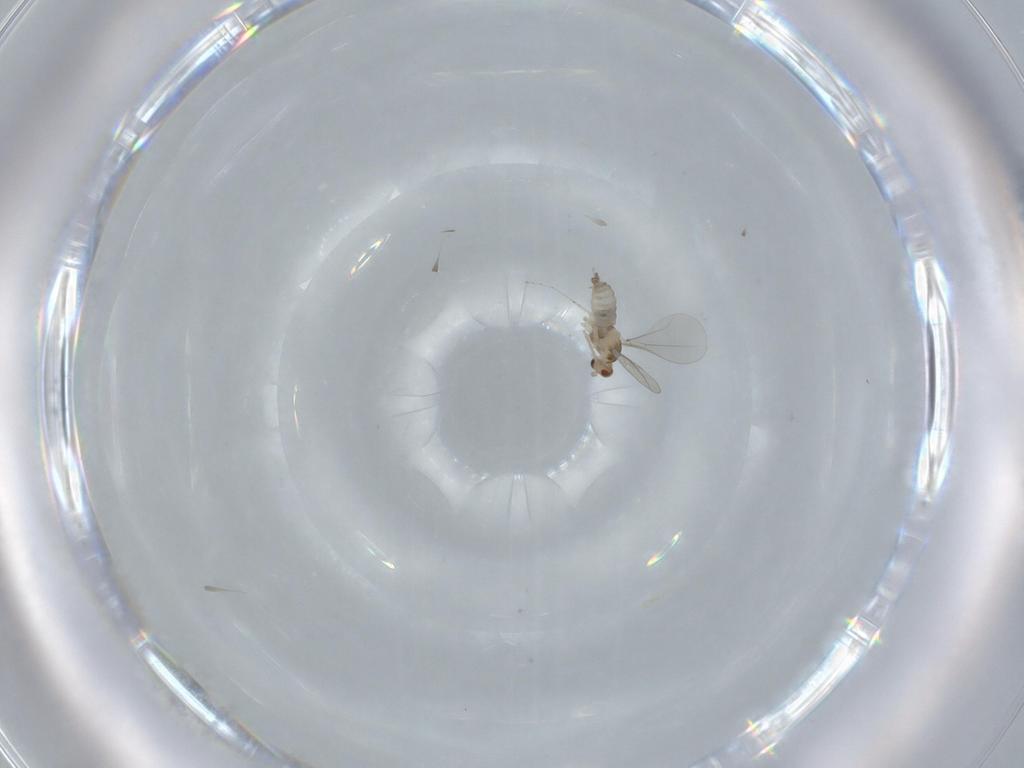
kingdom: Animalia
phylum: Arthropoda
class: Insecta
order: Diptera
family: Cecidomyiidae
